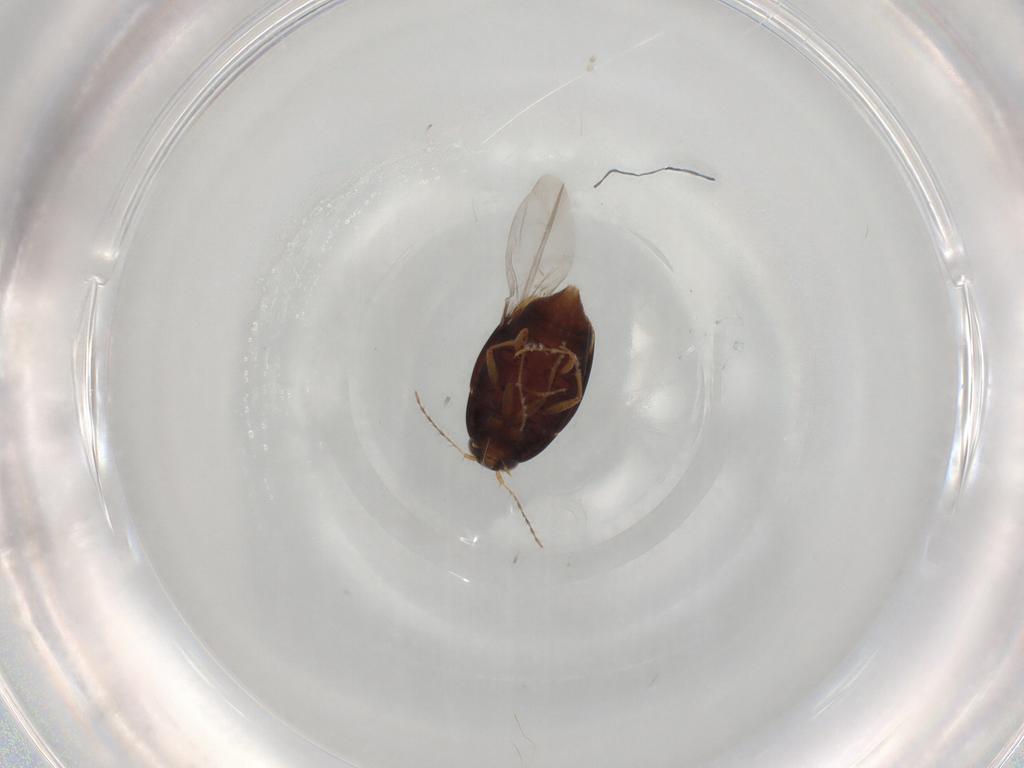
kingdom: Animalia
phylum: Arthropoda
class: Insecta
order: Coleoptera
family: Staphylinidae
